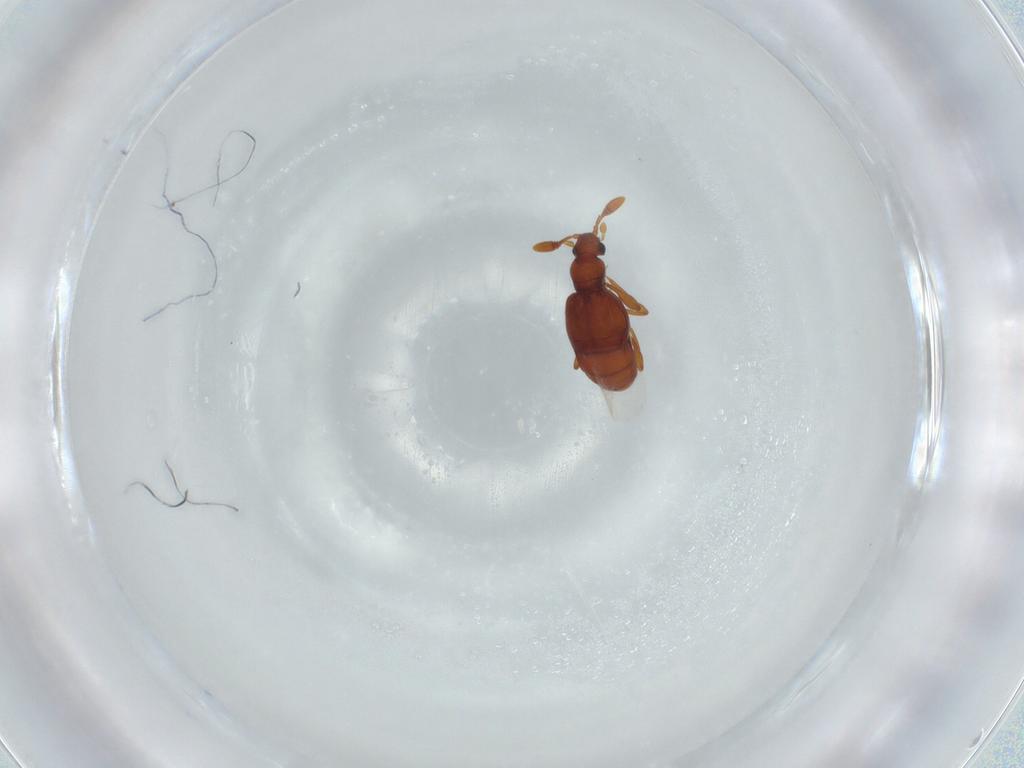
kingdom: Animalia
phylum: Arthropoda
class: Insecta
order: Coleoptera
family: Staphylinidae
